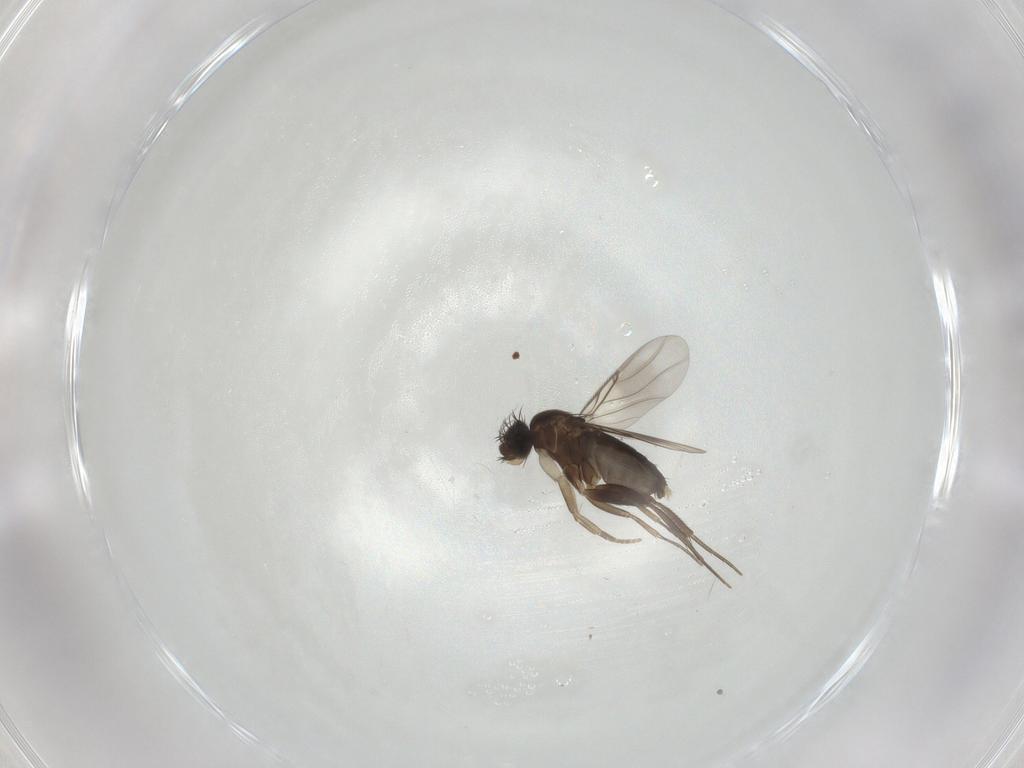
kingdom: Animalia
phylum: Arthropoda
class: Insecta
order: Diptera
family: Phoridae
